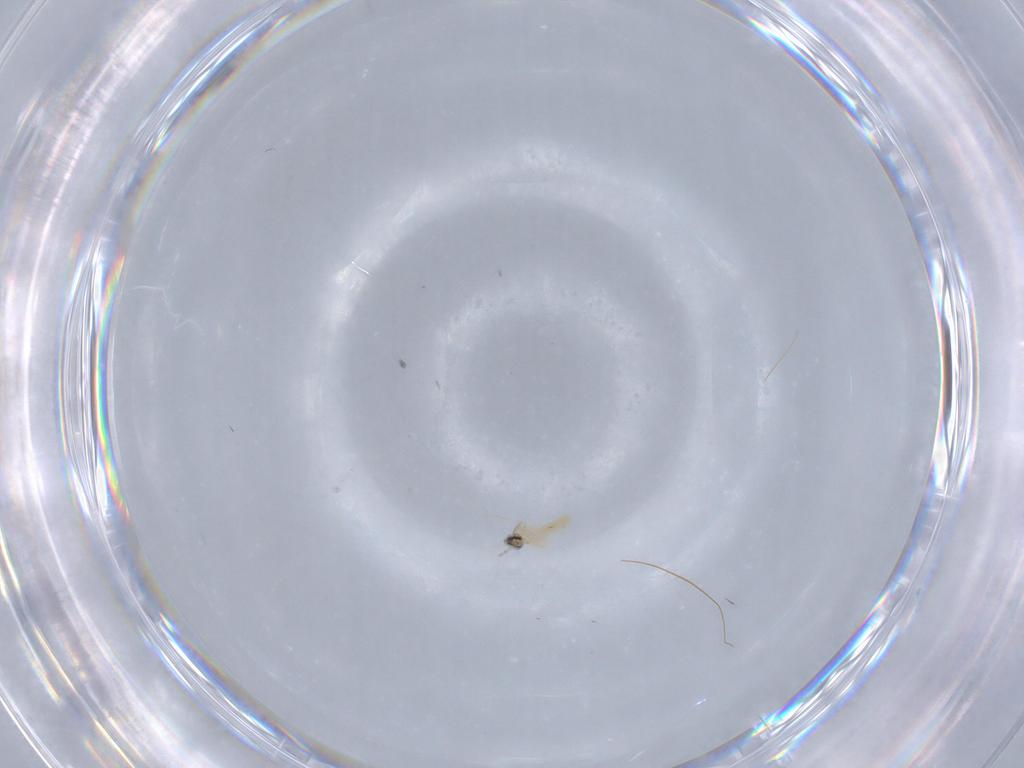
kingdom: Animalia
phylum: Arthropoda
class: Insecta
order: Diptera
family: Cecidomyiidae
